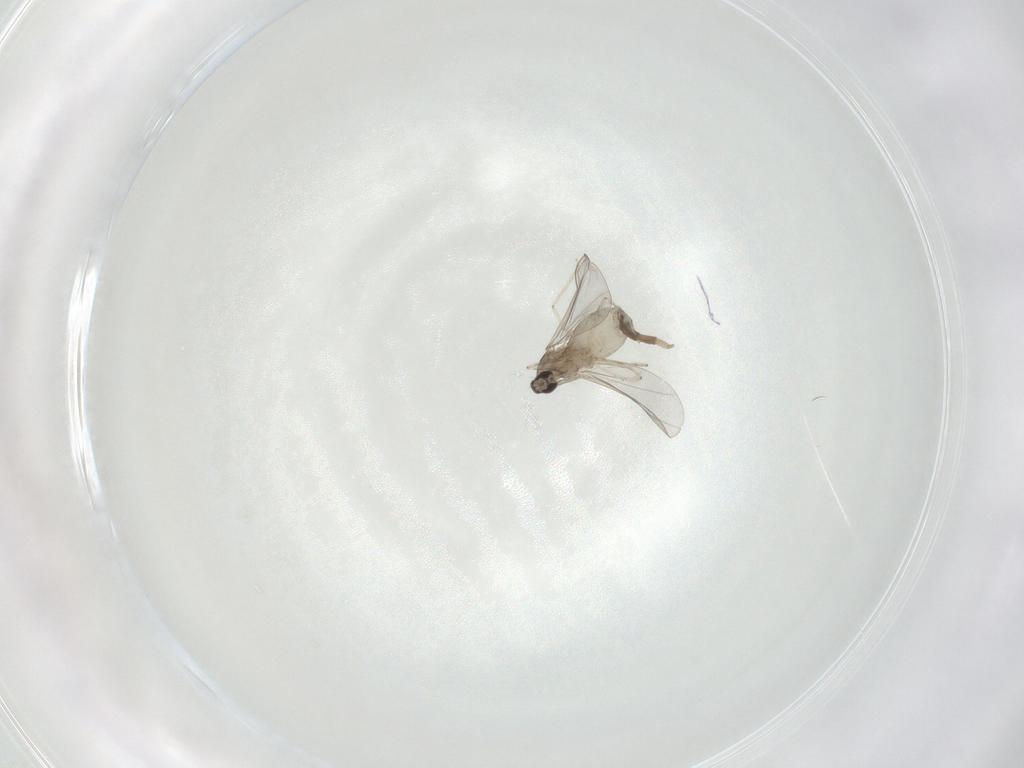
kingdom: Animalia
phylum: Arthropoda
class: Insecta
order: Diptera
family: Cecidomyiidae
